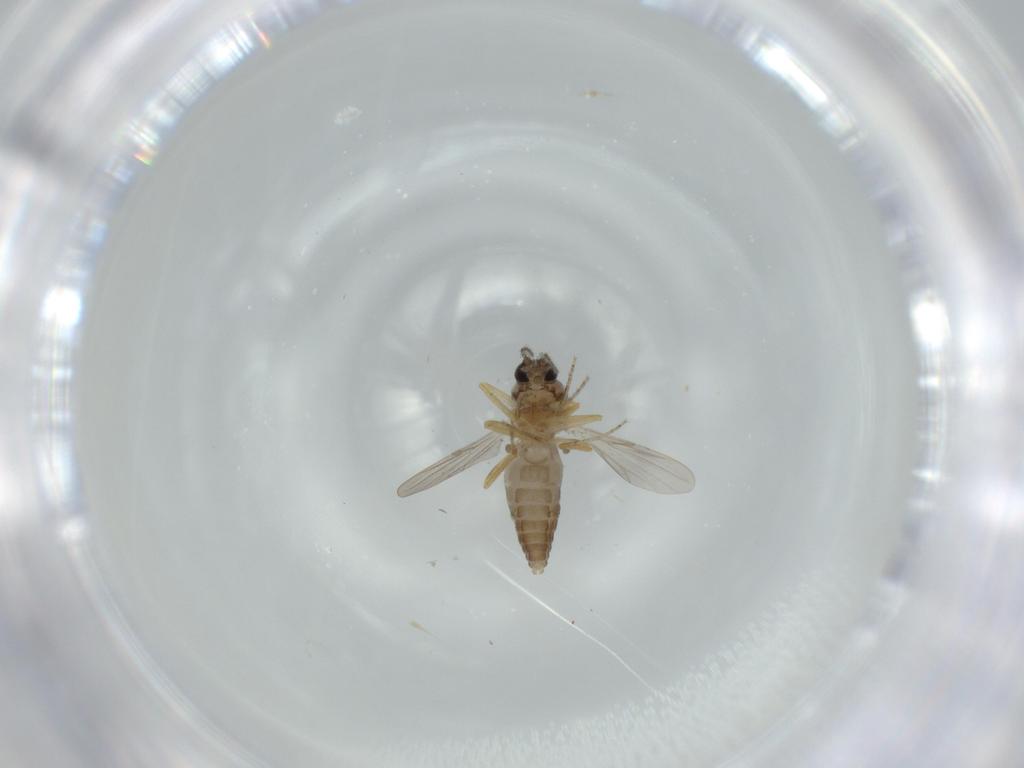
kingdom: Animalia
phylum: Arthropoda
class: Insecta
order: Diptera
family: Ceratopogonidae
